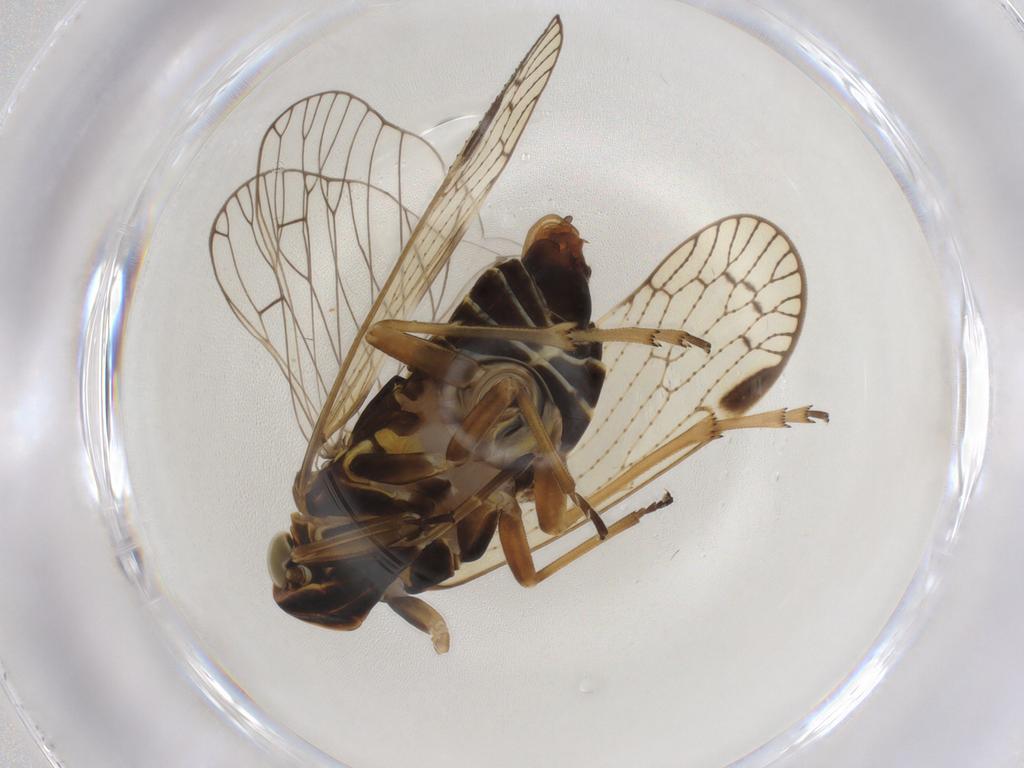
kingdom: Animalia
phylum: Arthropoda
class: Insecta
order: Hemiptera
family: Cixiidae
